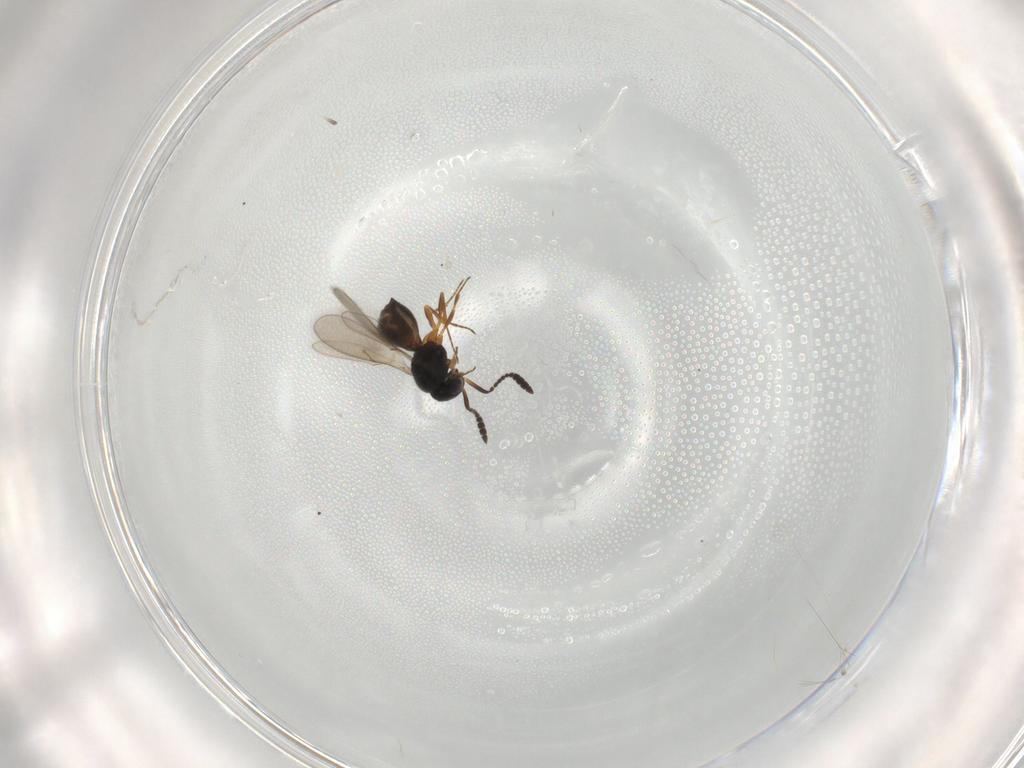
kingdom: Animalia
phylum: Arthropoda
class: Insecta
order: Hymenoptera
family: Scelionidae
